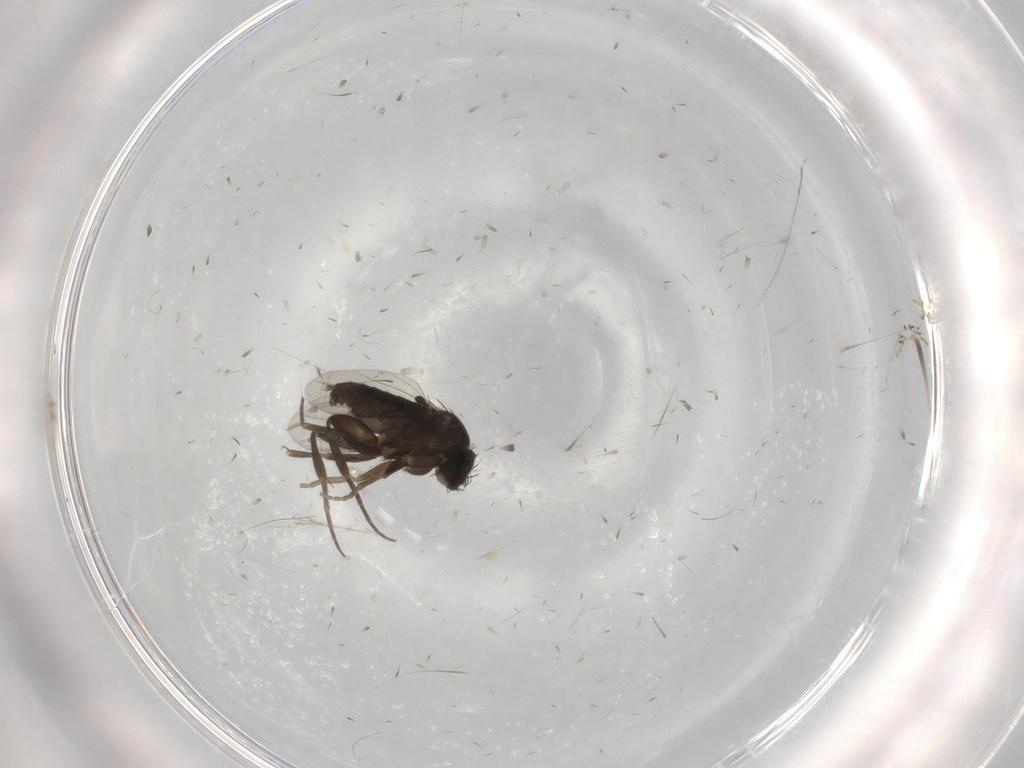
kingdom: Animalia
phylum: Arthropoda
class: Insecta
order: Diptera
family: Phoridae
